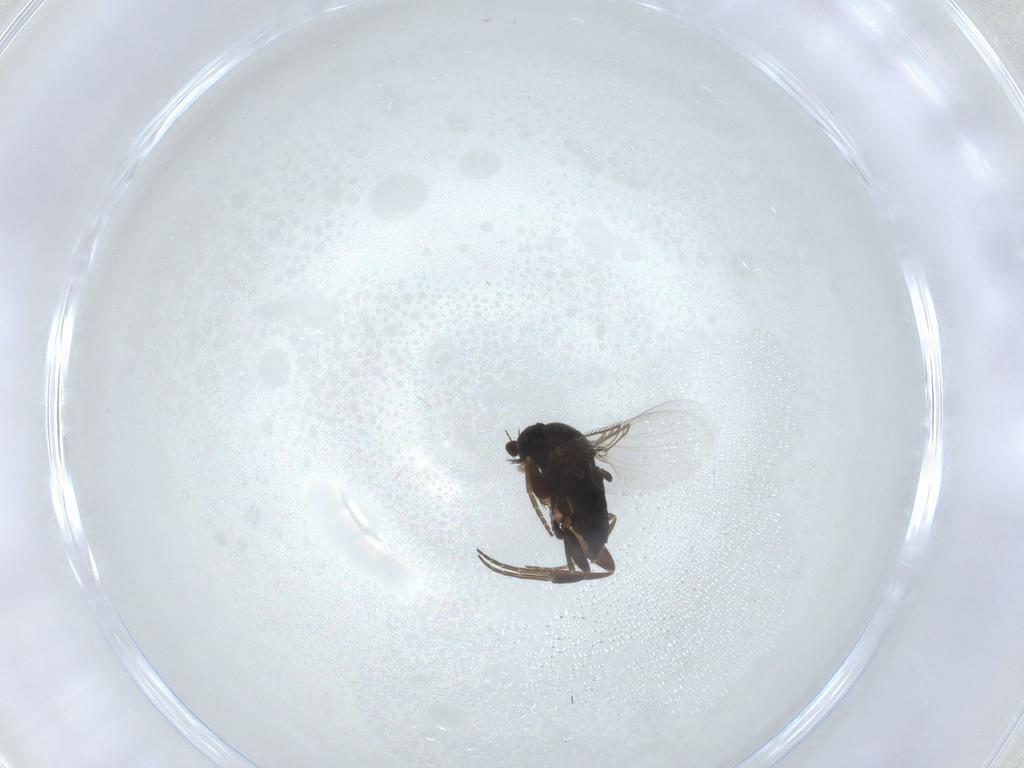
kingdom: Animalia
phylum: Arthropoda
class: Insecta
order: Diptera
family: Phoridae
